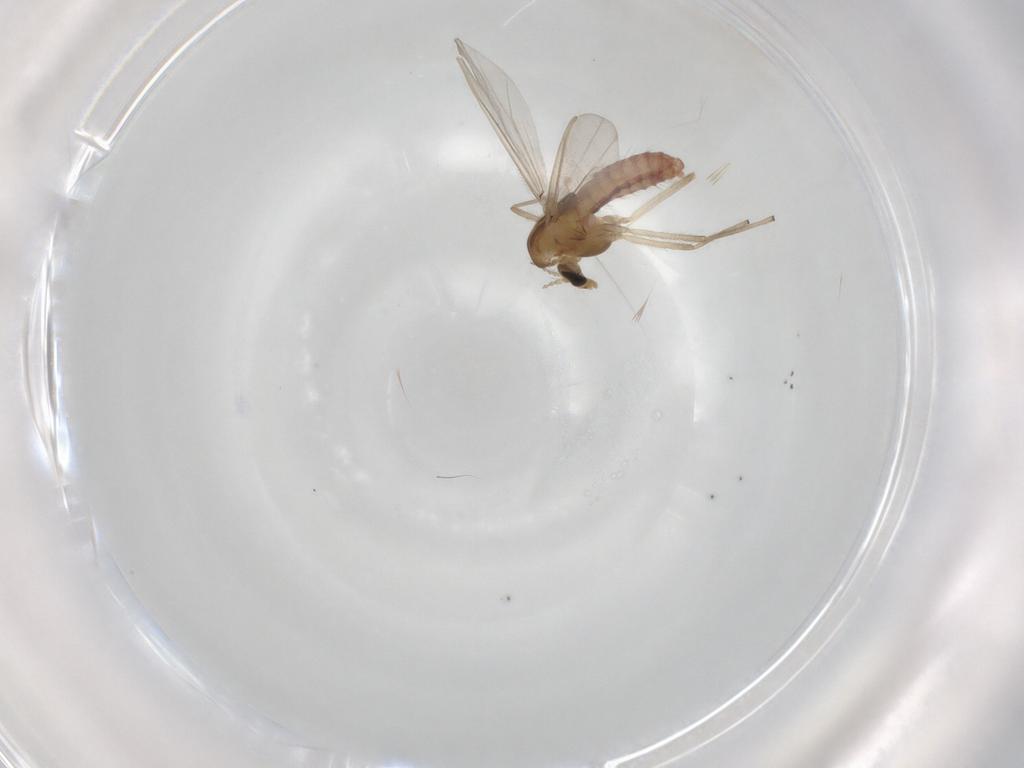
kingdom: Animalia
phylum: Arthropoda
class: Insecta
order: Diptera
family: Chironomidae
